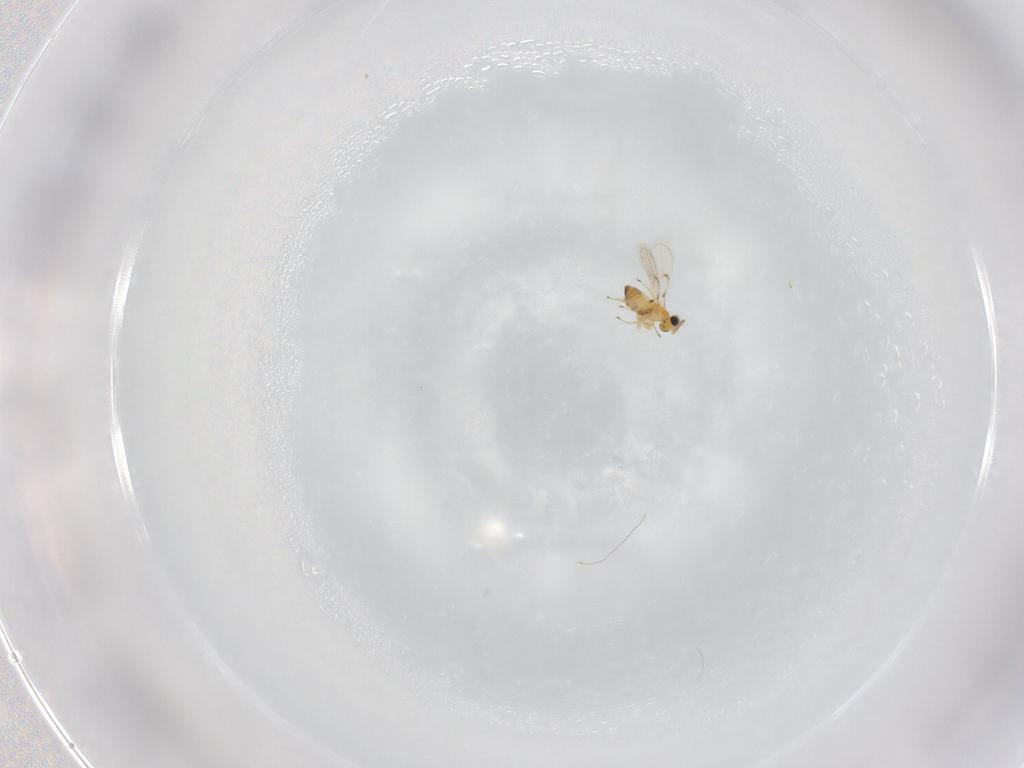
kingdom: Animalia
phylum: Arthropoda
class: Insecta
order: Hymenoptera
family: Trichogrammatidae
